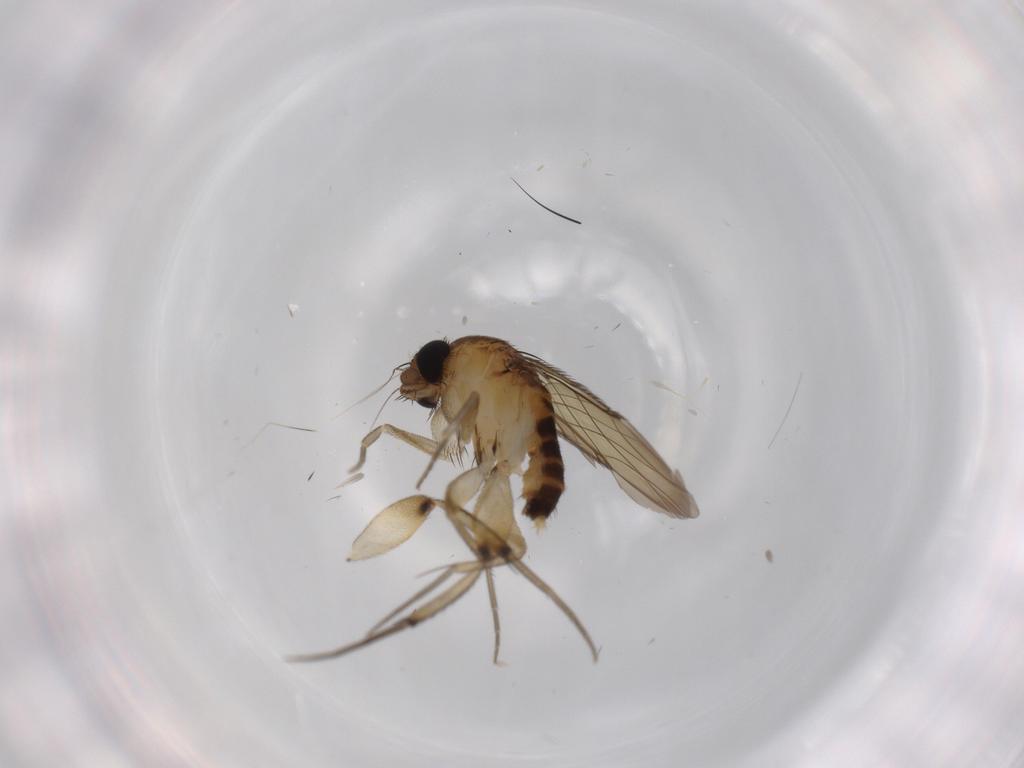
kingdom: Animalia
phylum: Arthropoda
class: Insecta
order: Diptera
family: Phoridae
